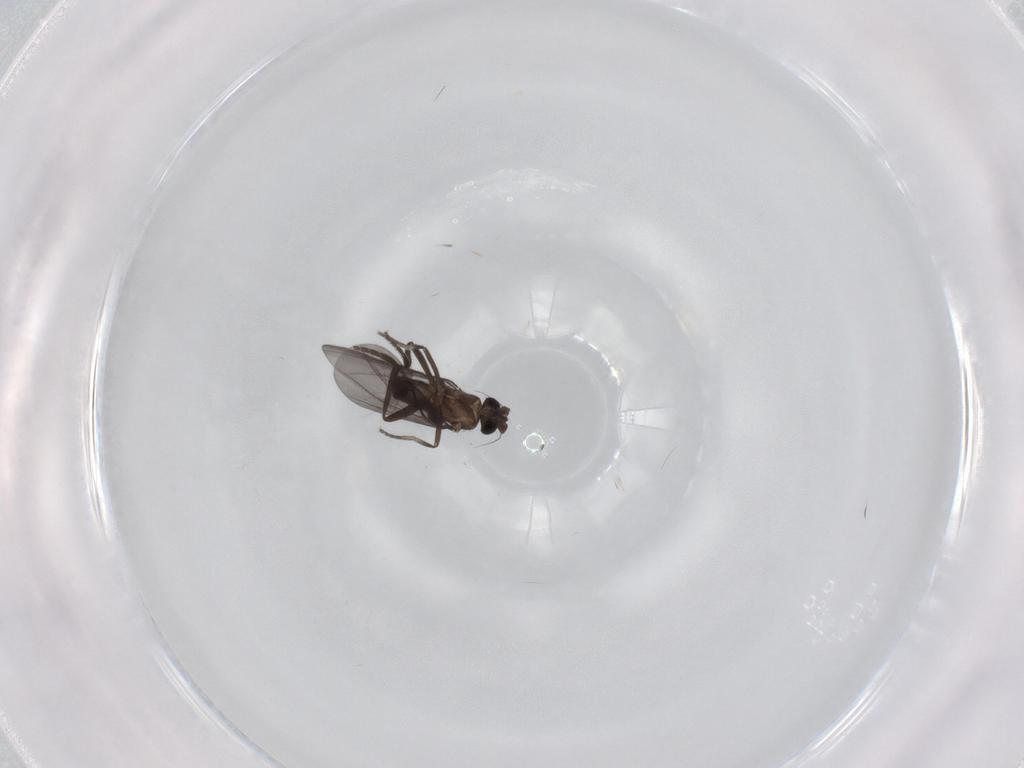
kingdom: Animalia
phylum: Arthropoda
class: Insecta
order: Diptera
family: Phoridae
